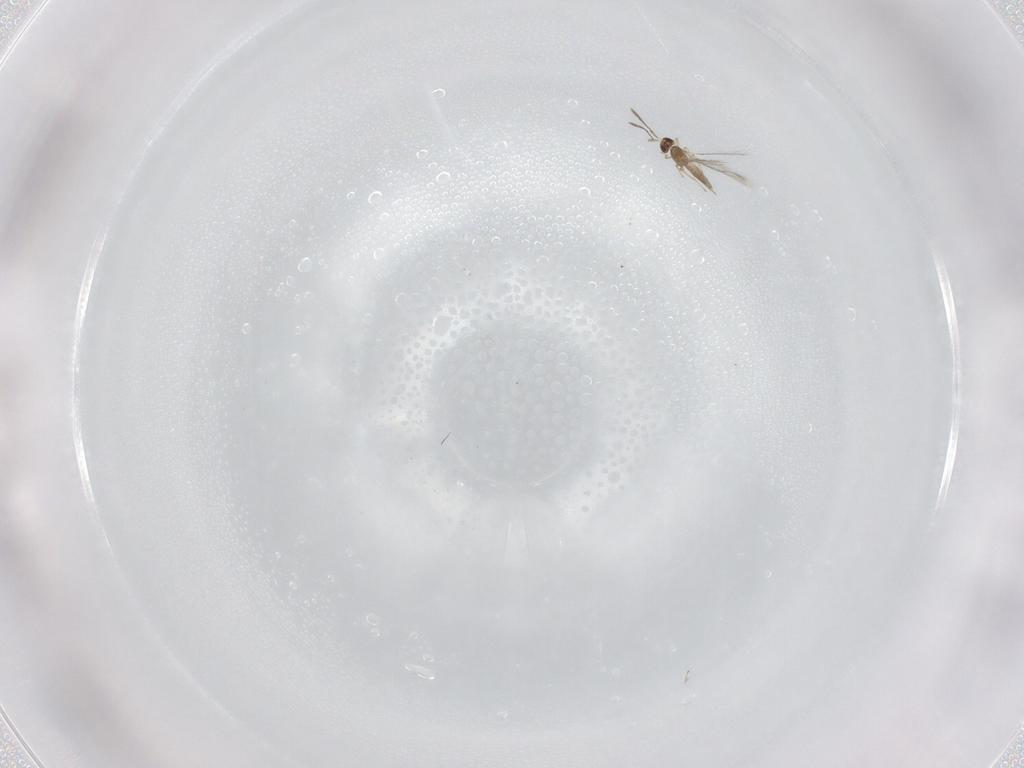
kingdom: Animalia
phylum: Arthropoda
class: Insecta
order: Hymenoptera
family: Mymaridae
